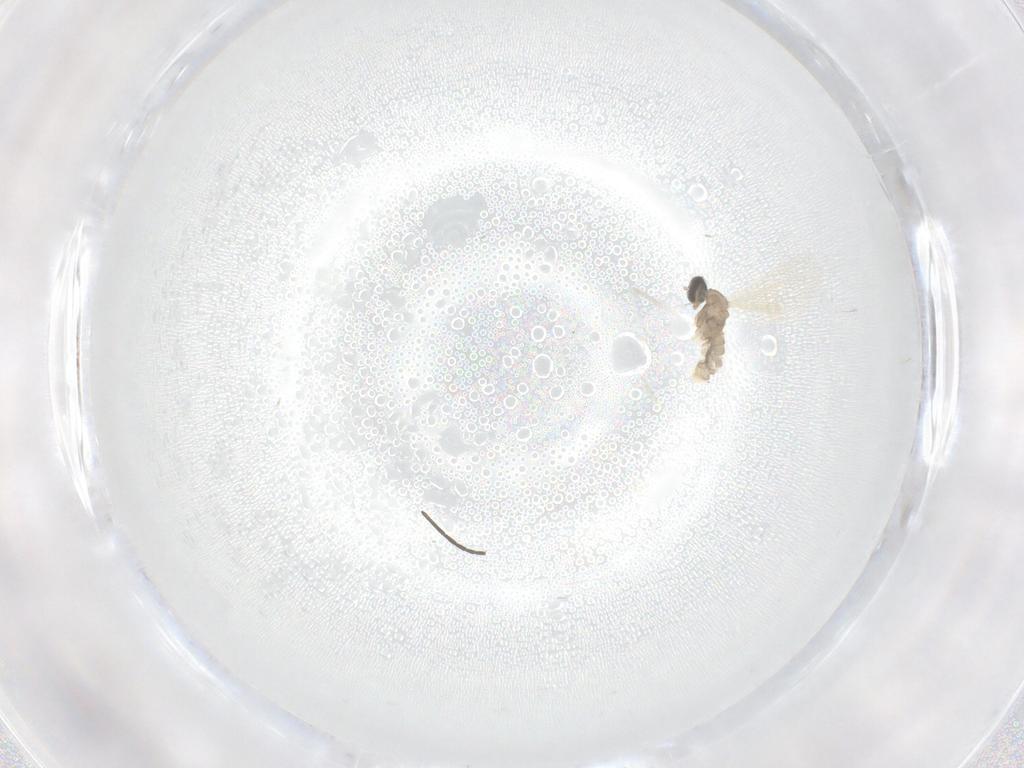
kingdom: Animalia
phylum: Arthropoda
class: Insecta
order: Diptera
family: Cecidomyiidae
